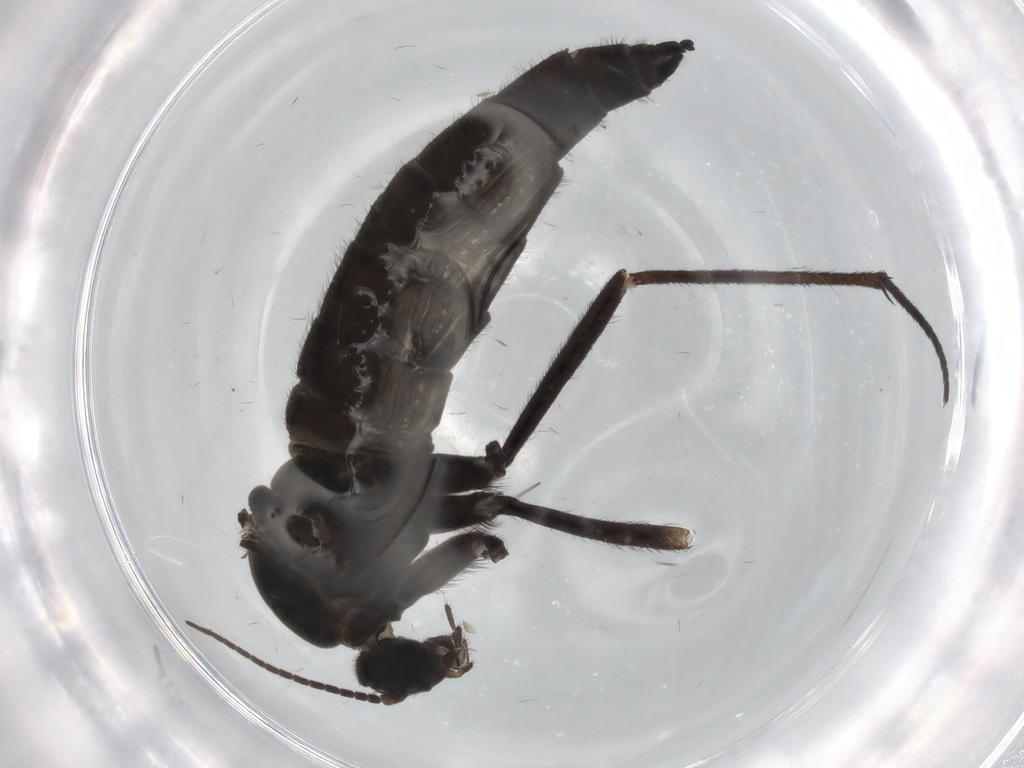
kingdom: Animalia
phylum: Arthropoda
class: Insecta
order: Diptera
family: Sciaridae
